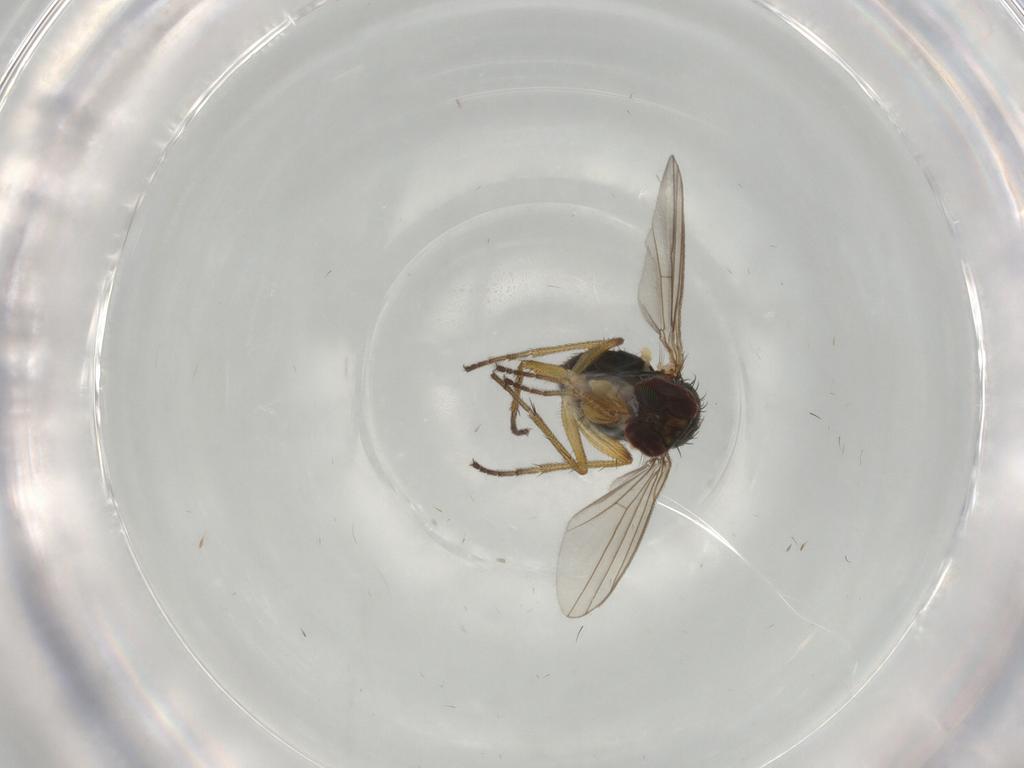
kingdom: Animalia
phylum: Arthropoda
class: Insecta
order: Diptera
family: Dolichopodidae
